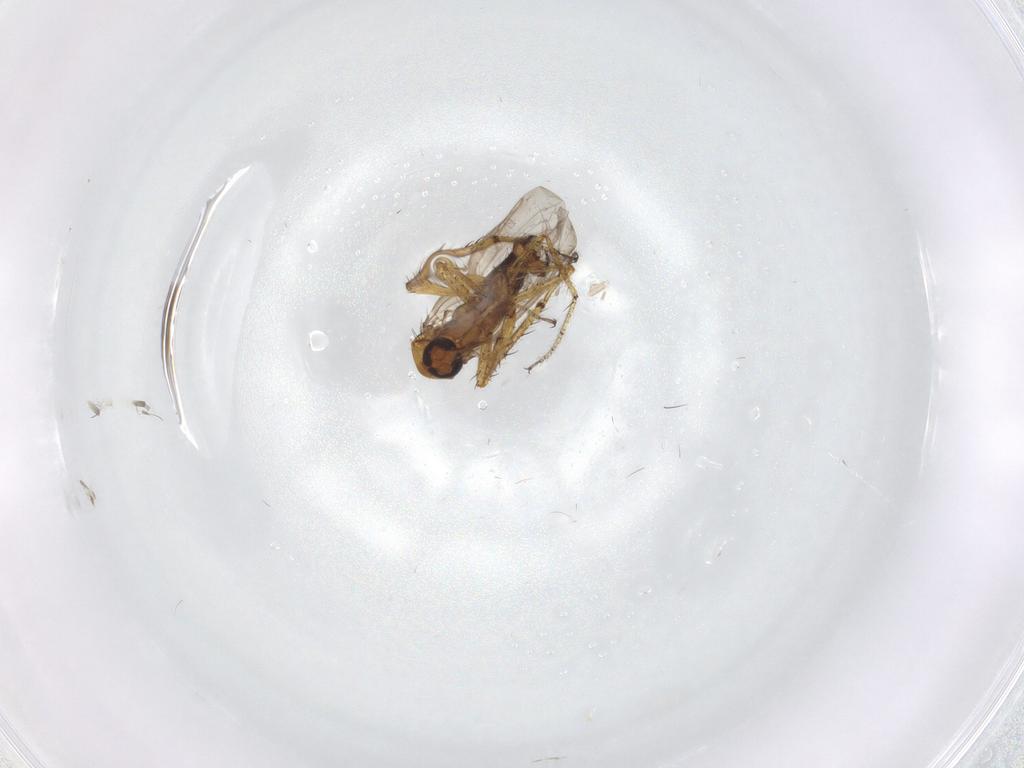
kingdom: Animalia
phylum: Arthropoda
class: Insecta
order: Diptera
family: Ceratopogonidae
